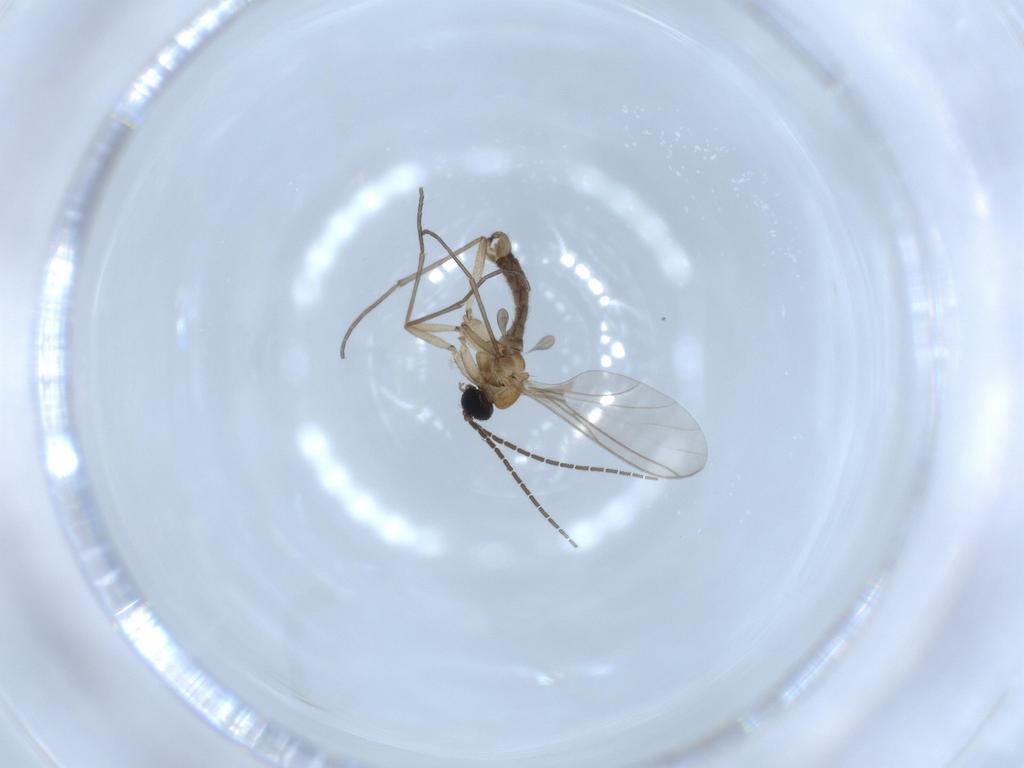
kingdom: Animalia
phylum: Arthropoda
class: Insecta
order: Diptera
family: Sciaridae
